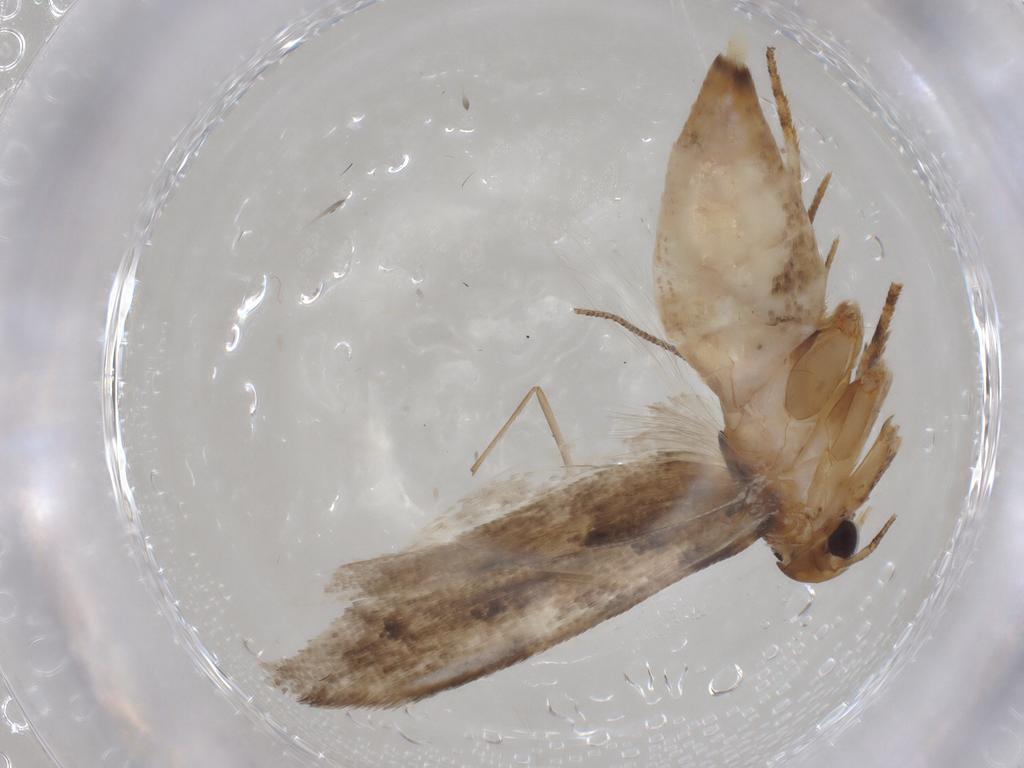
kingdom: Animalia
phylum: Arthropoda
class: Insecta
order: Lepidoptera
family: Gelechiidae
